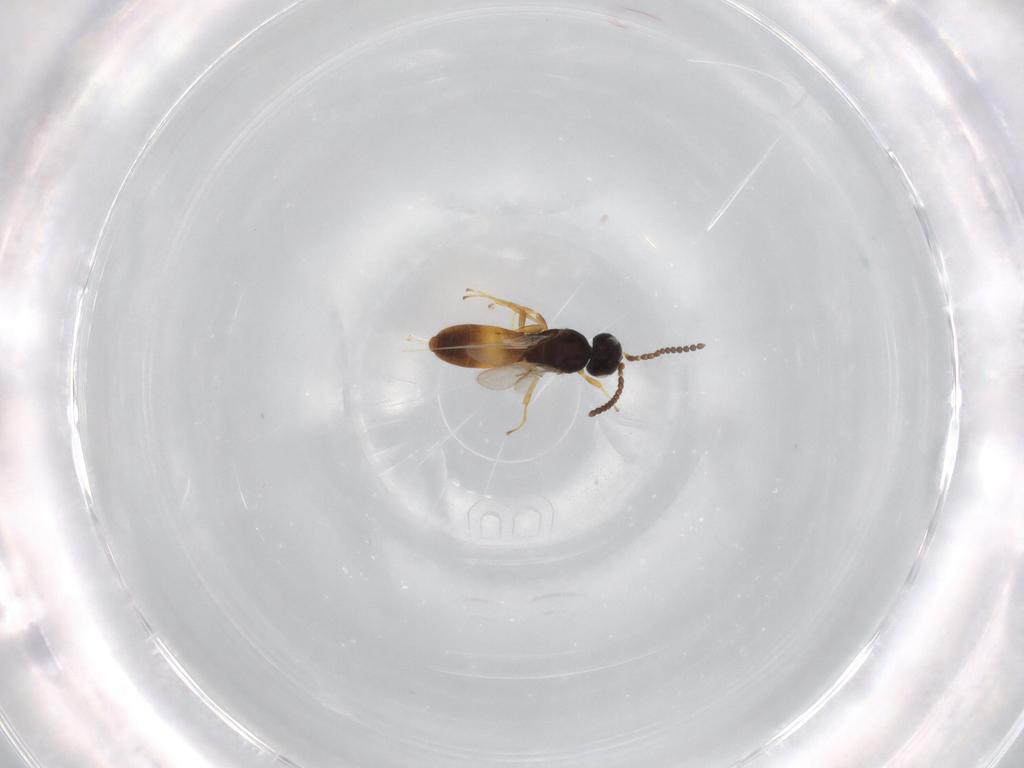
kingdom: Animalia
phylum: Arthropoda
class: Insecta
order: Hymenoptera
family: Scelionidae
